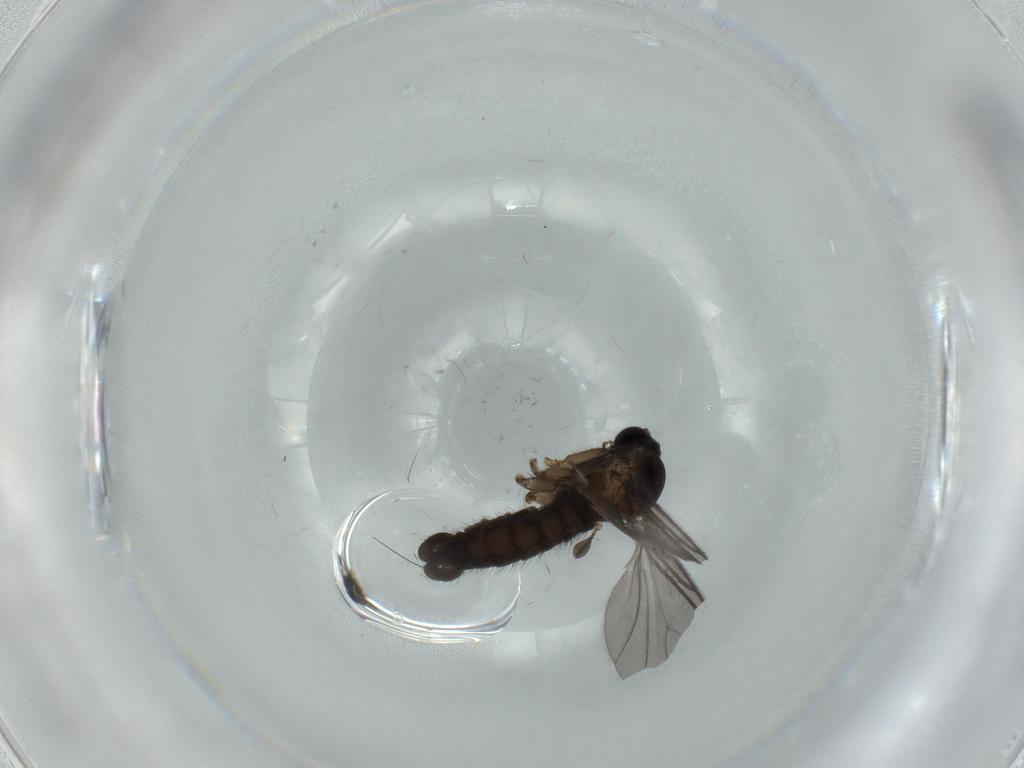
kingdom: Animalia
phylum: Arthropoda
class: Insecta
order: Diptera
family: Sciaridae
